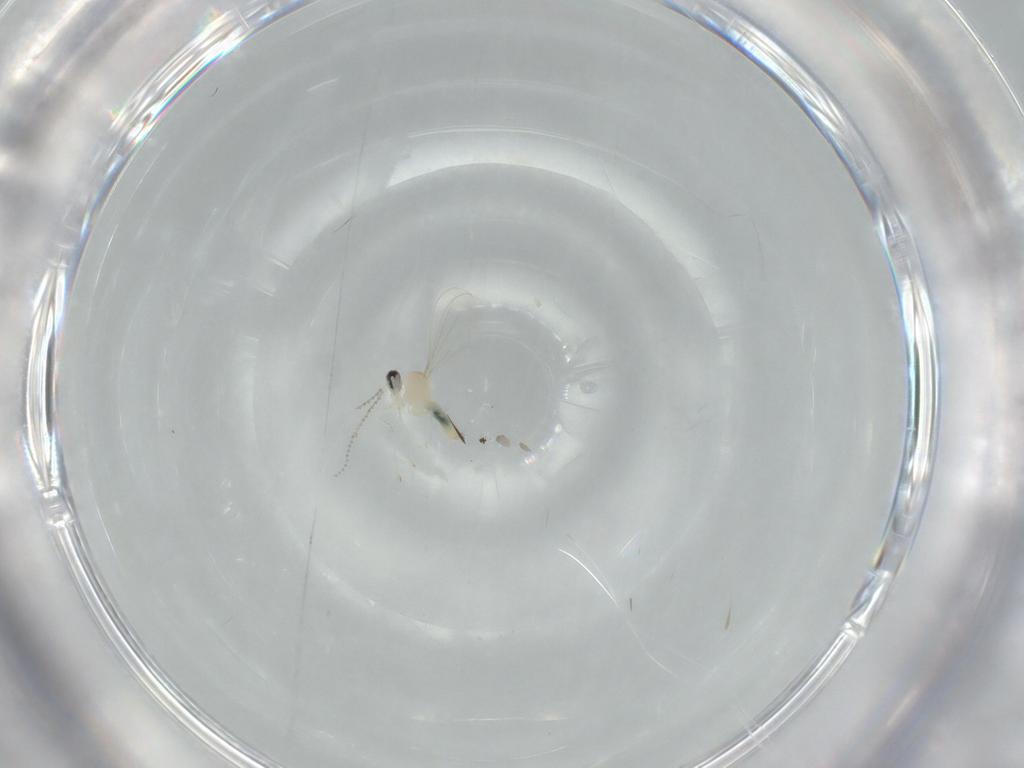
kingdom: Animalia
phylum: Arthropoda
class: Insecta
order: Diptera
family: Cecidomyiidae
